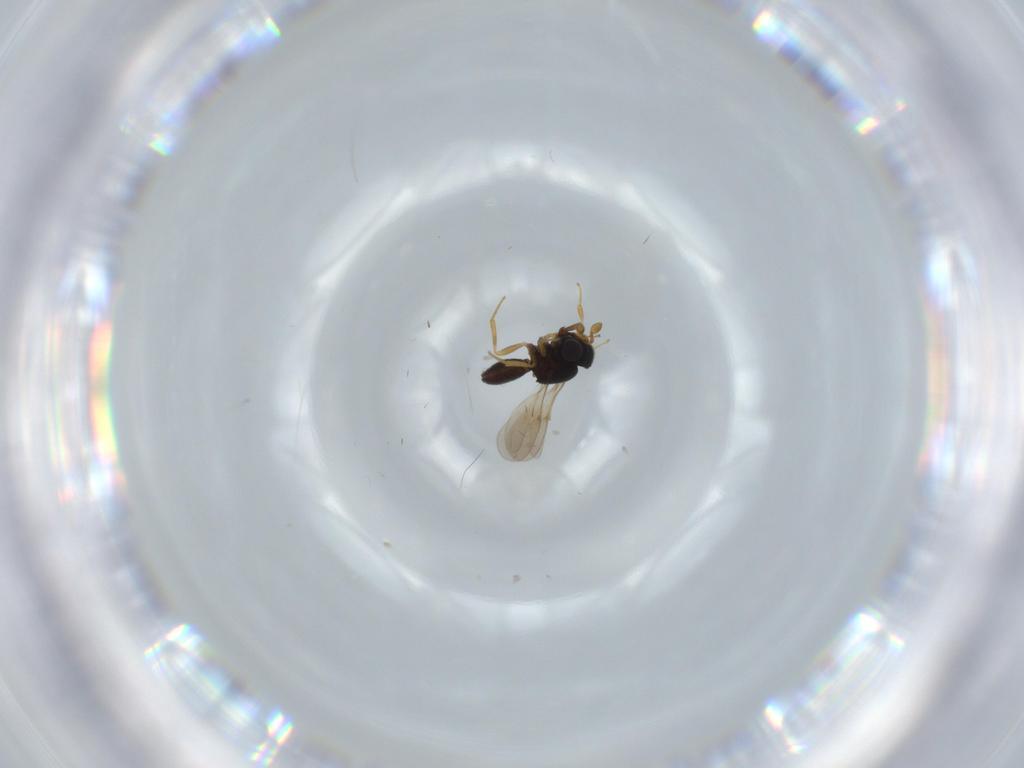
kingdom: Animalia
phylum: Arthropoda
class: Insecta
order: Hymenoptera
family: Scelionidae
